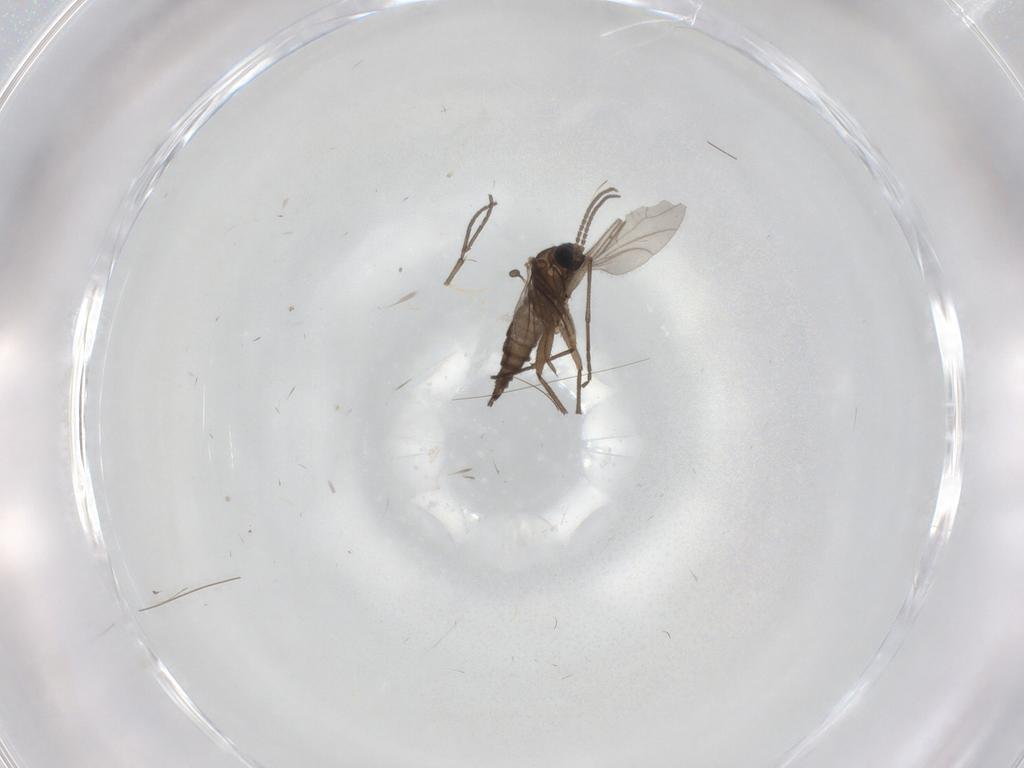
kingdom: Animalia
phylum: Arthropoda
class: Insecta
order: Diptera
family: Sciaridae
